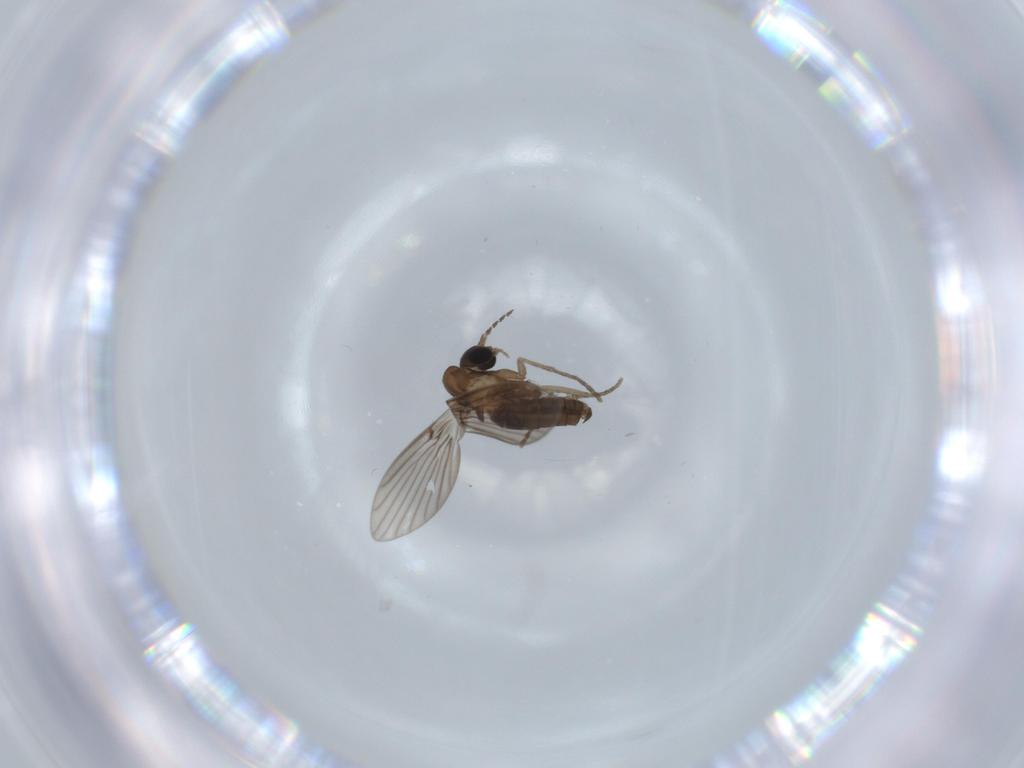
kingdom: Animalia
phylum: Arthropoda
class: Insecta
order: Diptera
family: Psychodidae
